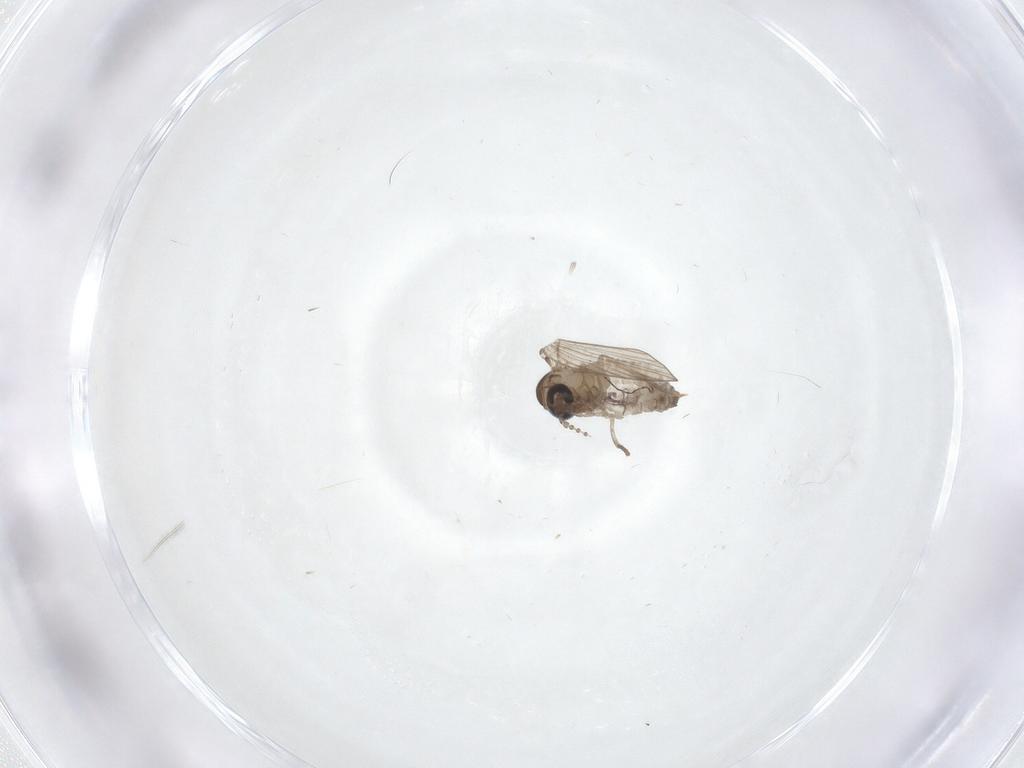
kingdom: Animalia
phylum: Arthropoda
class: Insecta
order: Diptera
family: Psychodidae
